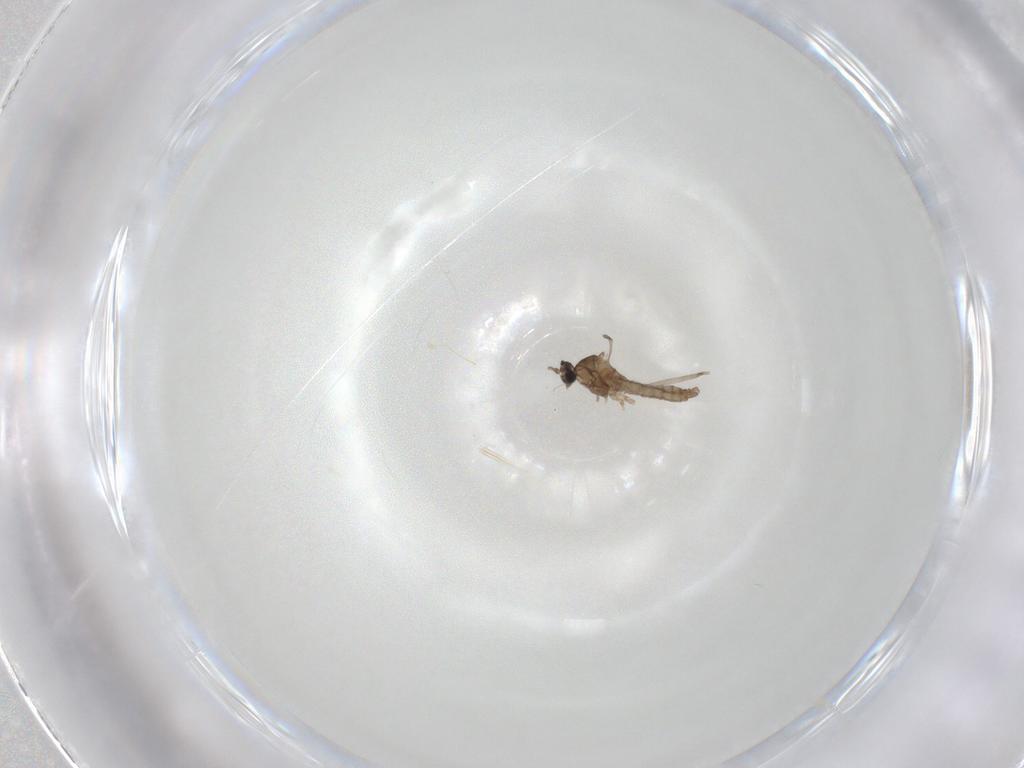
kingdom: Animalia
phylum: Arthropoda
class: Insecta
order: Diptera
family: Cecidomyiidae
